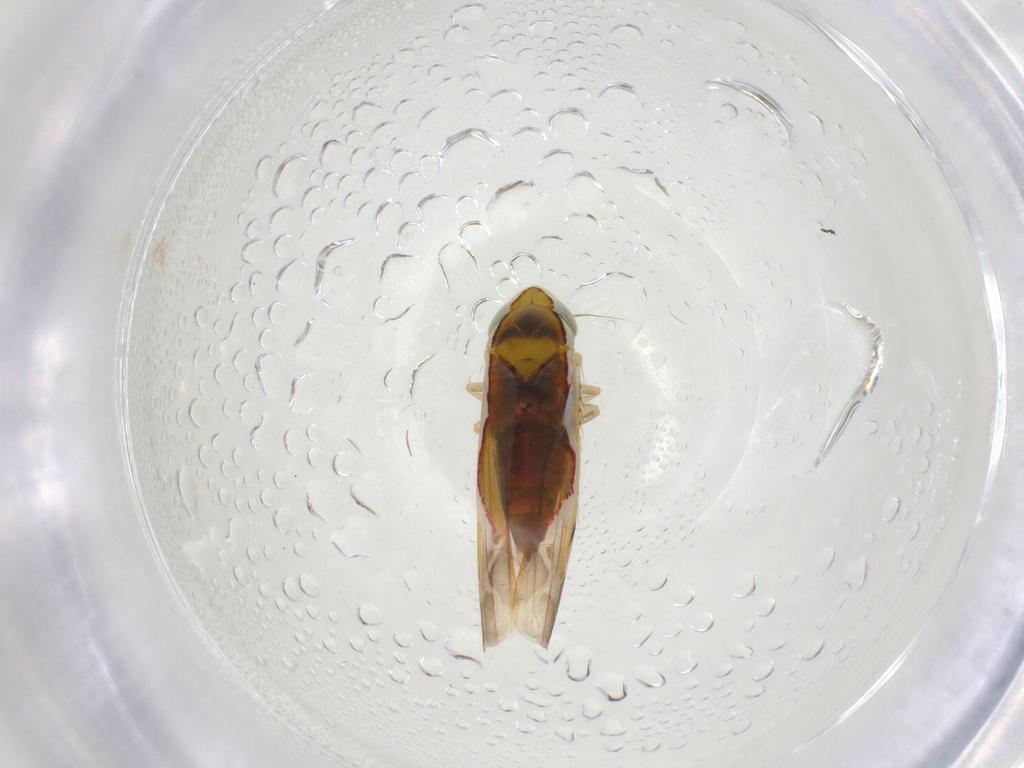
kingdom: Animalia
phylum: Arthropoda
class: Insecta
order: Hemiptera
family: Cicadellidae
